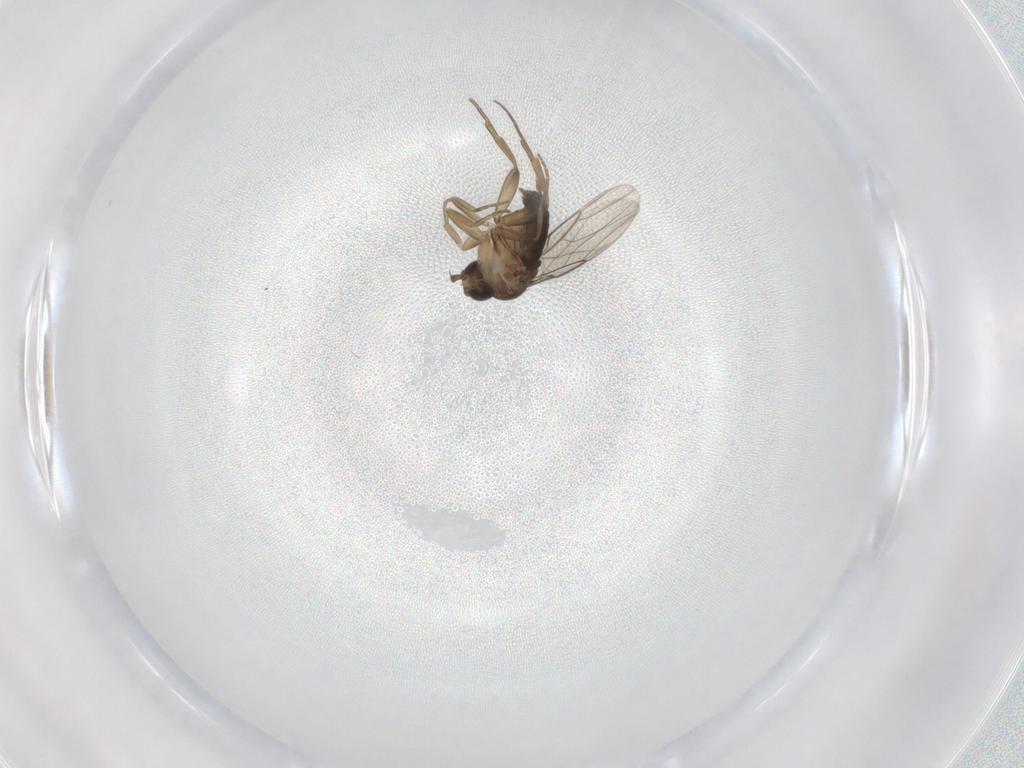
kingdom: Animalia
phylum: Arthropoda
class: Insecta
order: Diptera
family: Phoridae
